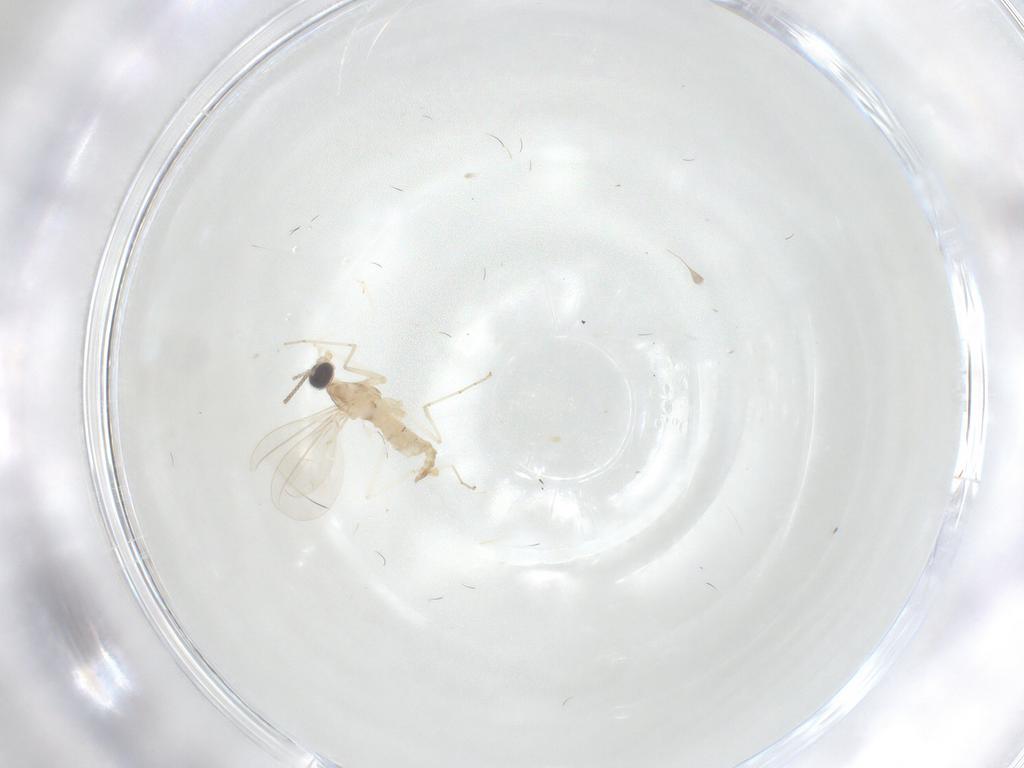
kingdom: Animalia
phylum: Arthropoda
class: Insecta
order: Diptera
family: Cecidomyiidae
